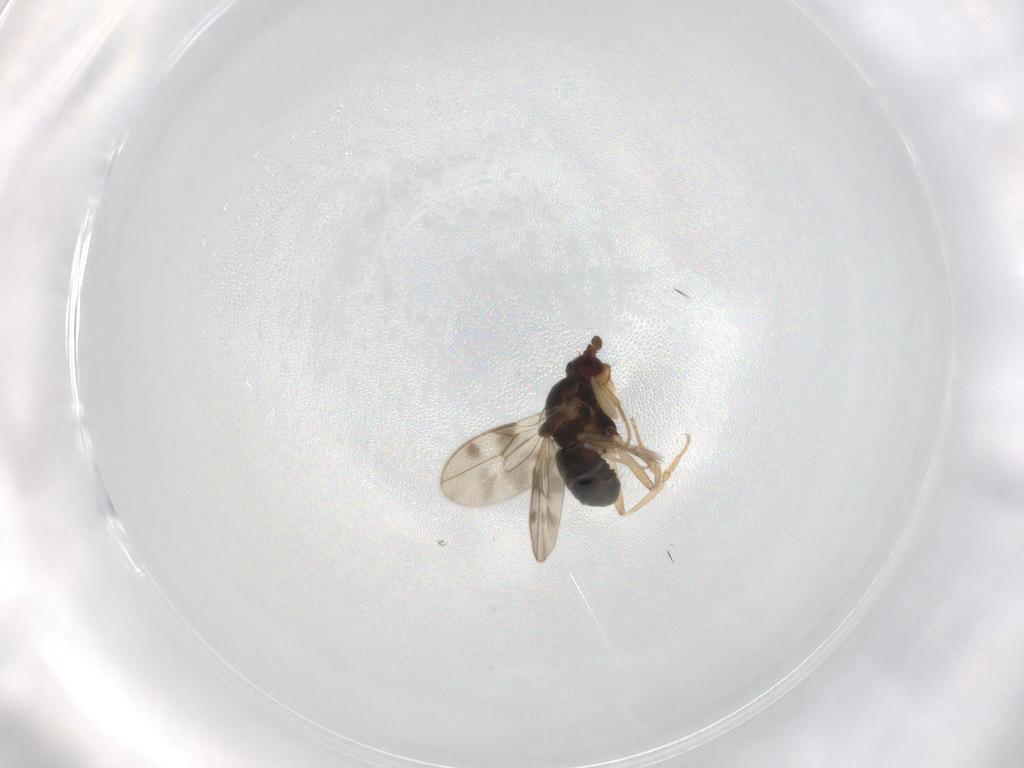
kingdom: Animalia
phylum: Arthropoda
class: Insecta
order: Diptera
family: Sphaeroceridae
